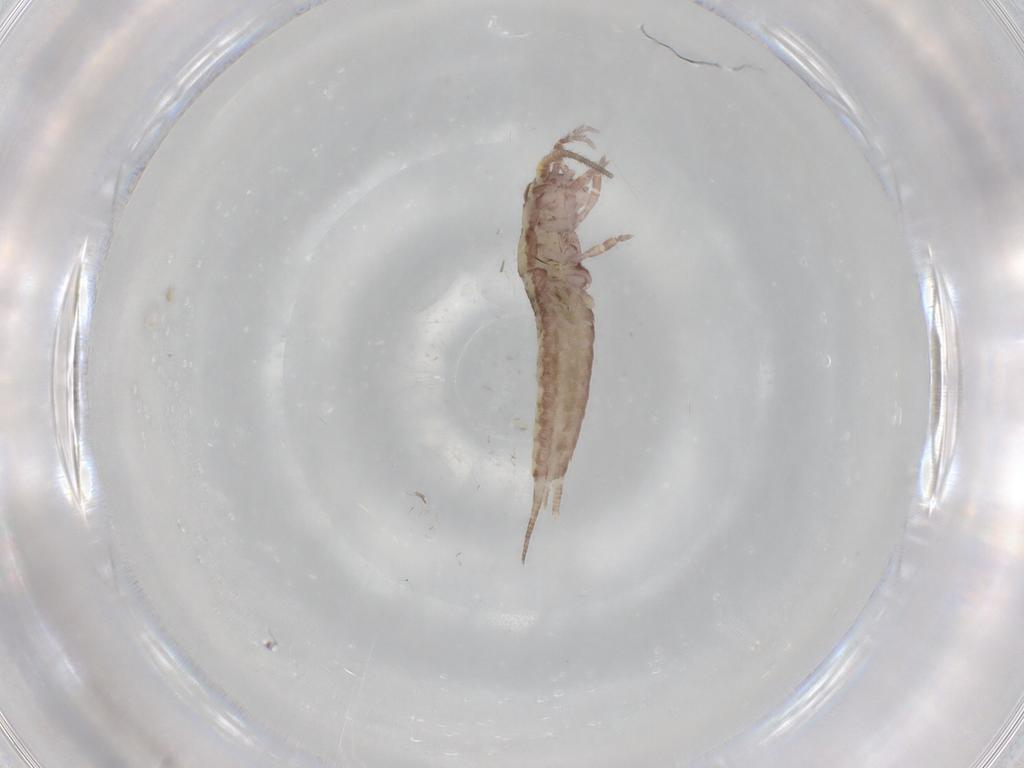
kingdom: Animalia
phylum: Arthropoda
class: Insecta
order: Archaeognatha
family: Machilidae
